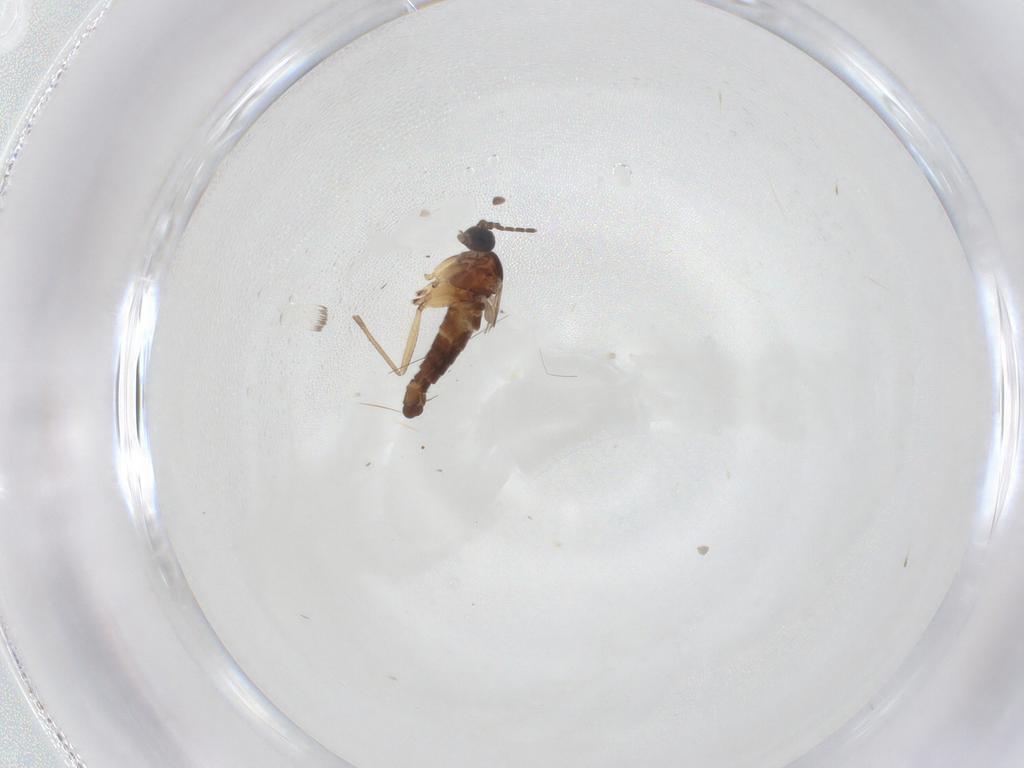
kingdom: Animalia
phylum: Arthropoda
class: Insecta
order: Diptera
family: Sciaridae
